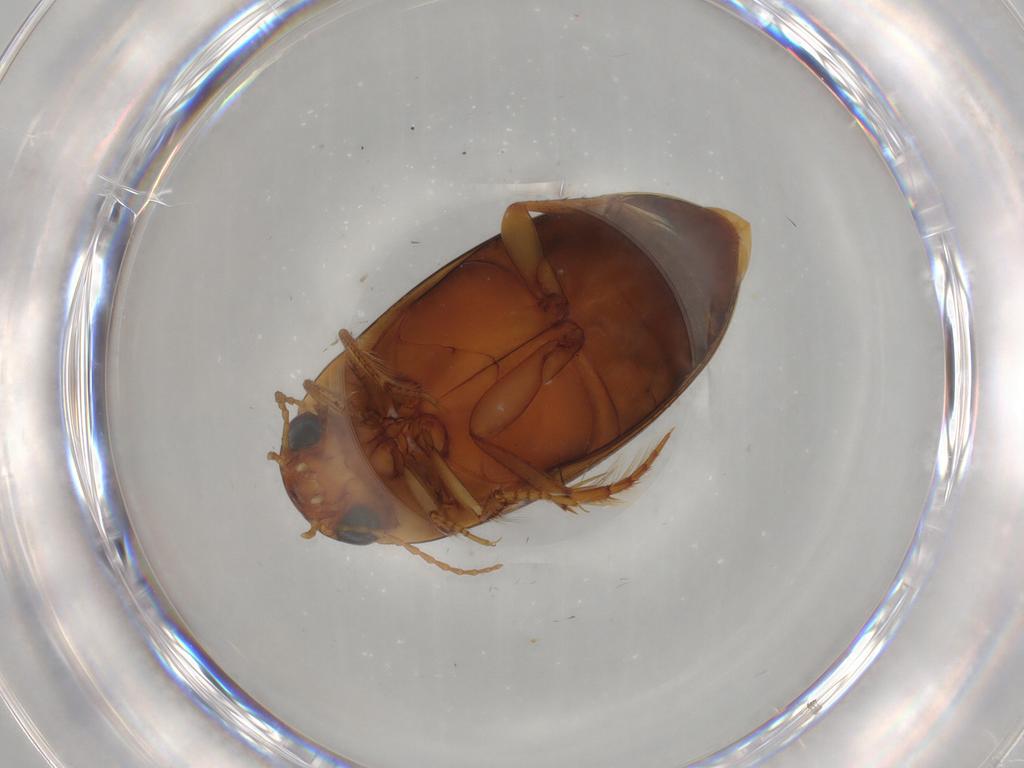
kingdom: Animalia
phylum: Arthropoda
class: Insecta
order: Coleoptera
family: Dytiscidae
